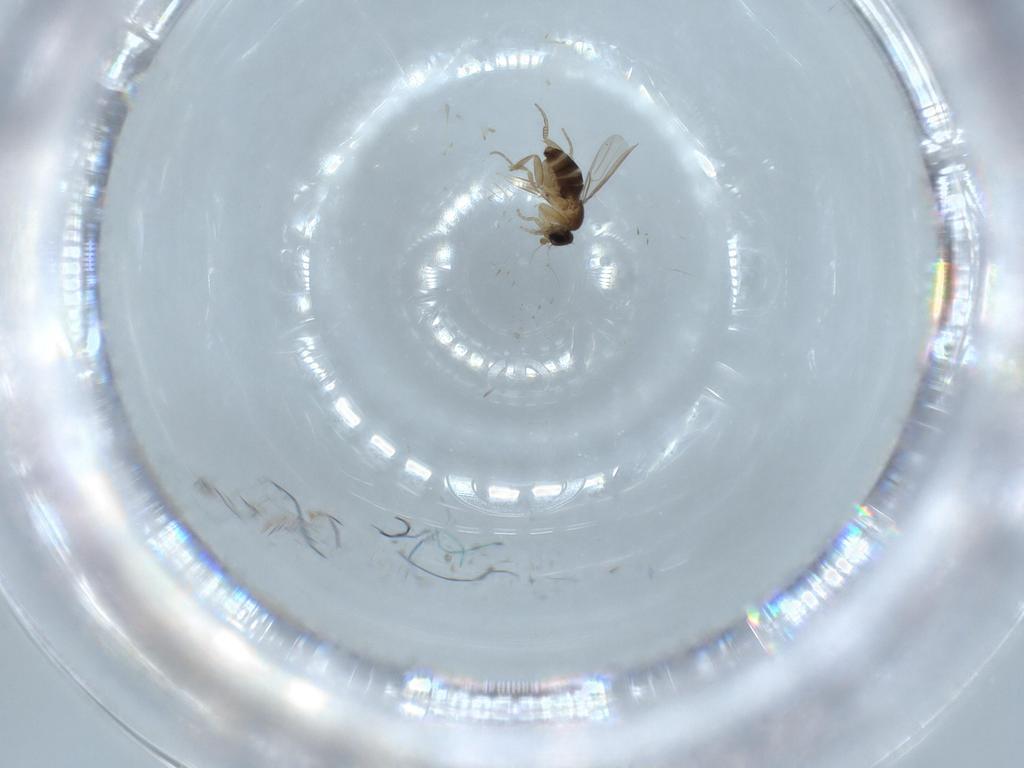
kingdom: Animalia
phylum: Arthropoda
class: Insecta
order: Diptera
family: Phoridae
